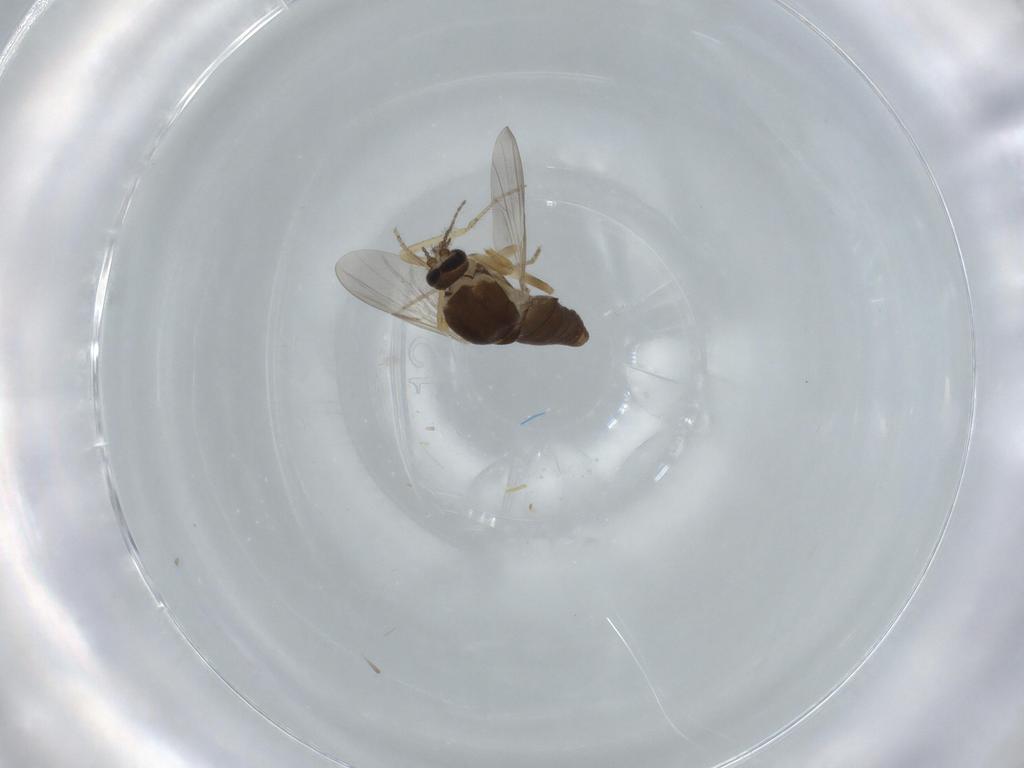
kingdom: Animalia
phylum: Arthropoda
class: Insecta
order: Diptera
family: Ceratopogonidae
